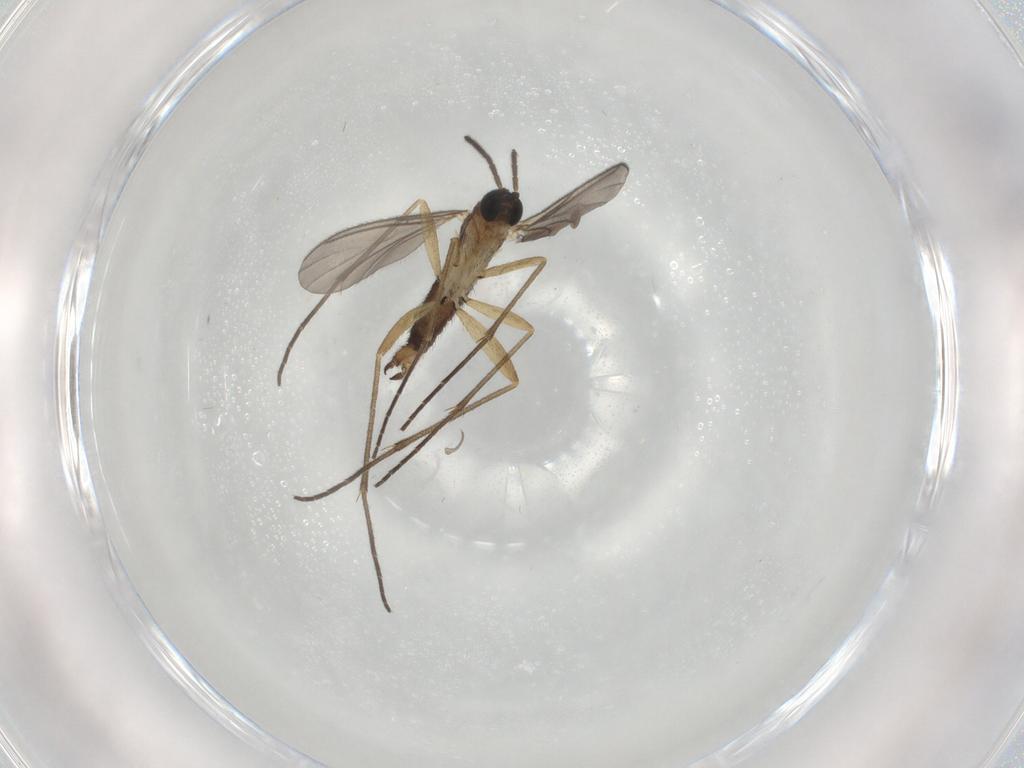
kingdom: Animalia
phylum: Arthropoda
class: Insecta
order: Diptera
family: Sciaridae
